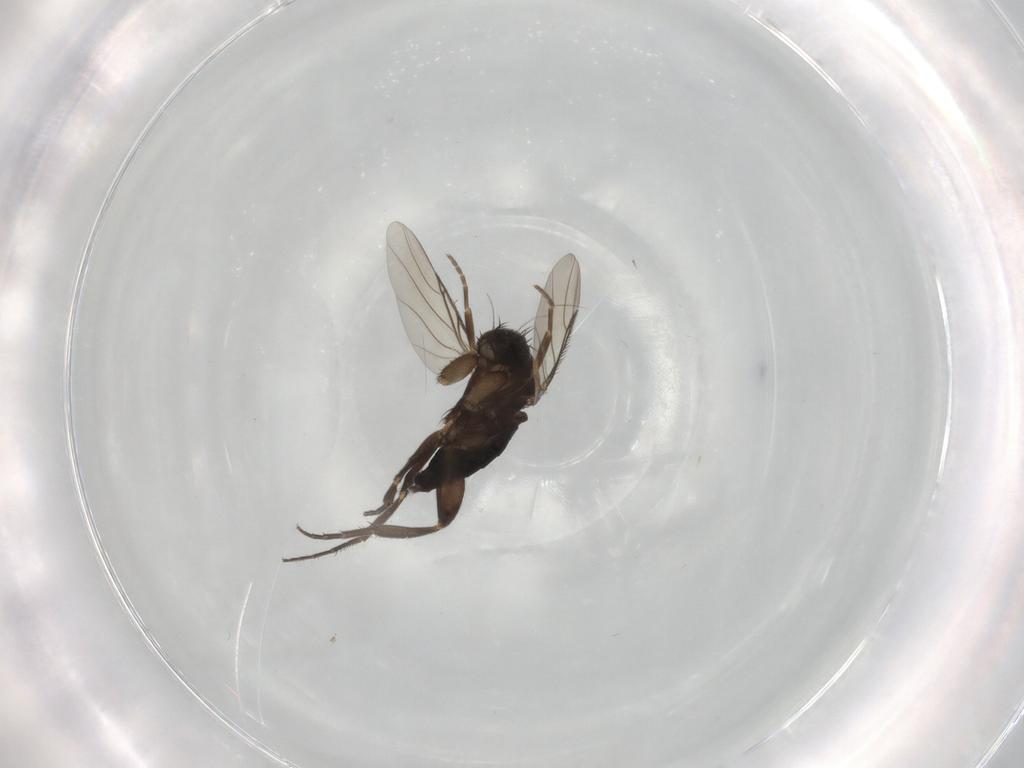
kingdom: Animalia
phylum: Arthropoda
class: Insecta
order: Diptera
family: Phoridae
